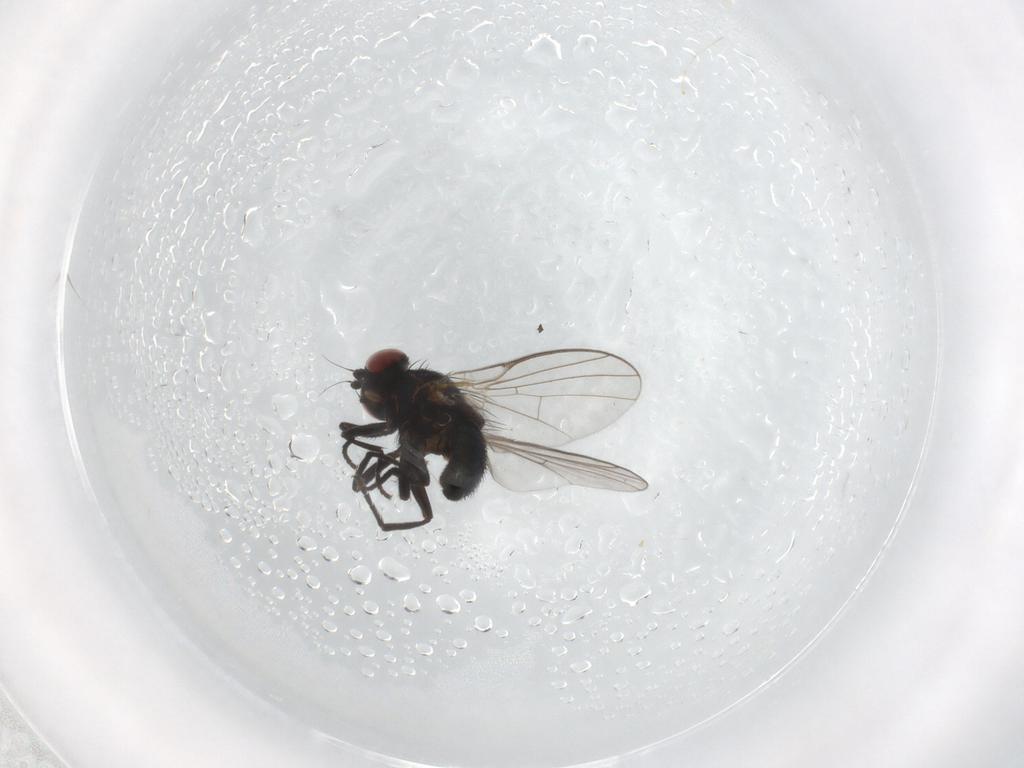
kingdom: Animalia
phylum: Arthropoda
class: Insecta
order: Diptera
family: Agromyzidae
